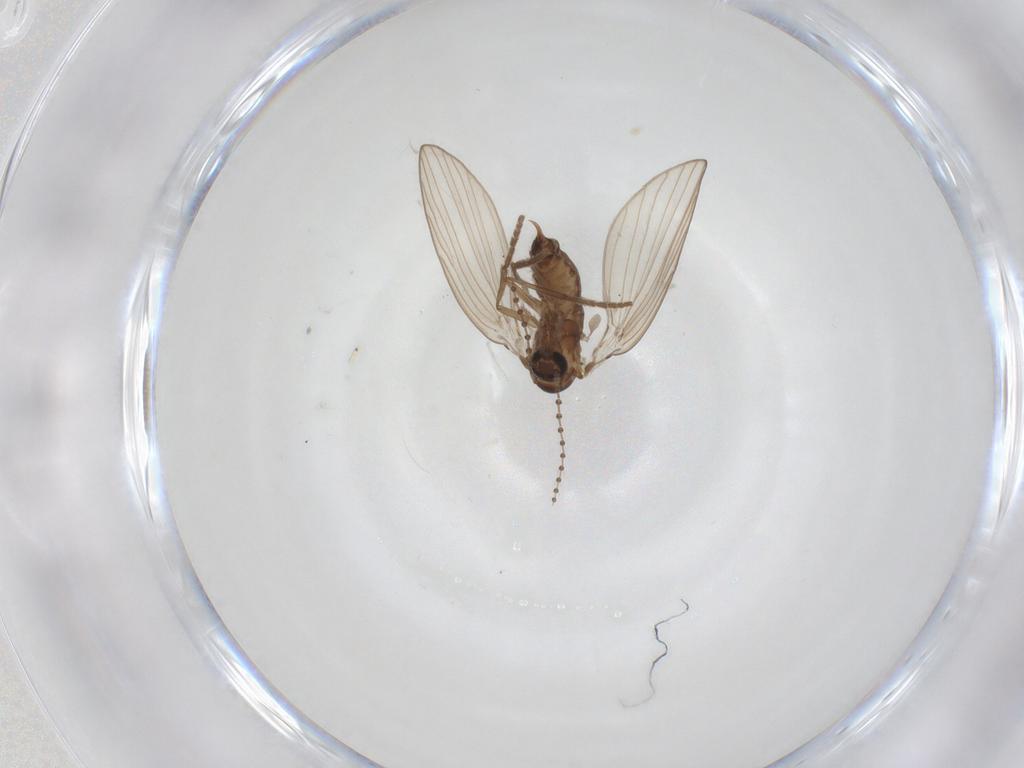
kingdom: Animalia
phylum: Arthropoda
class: Insecta
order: Diptera
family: Psychodidae
